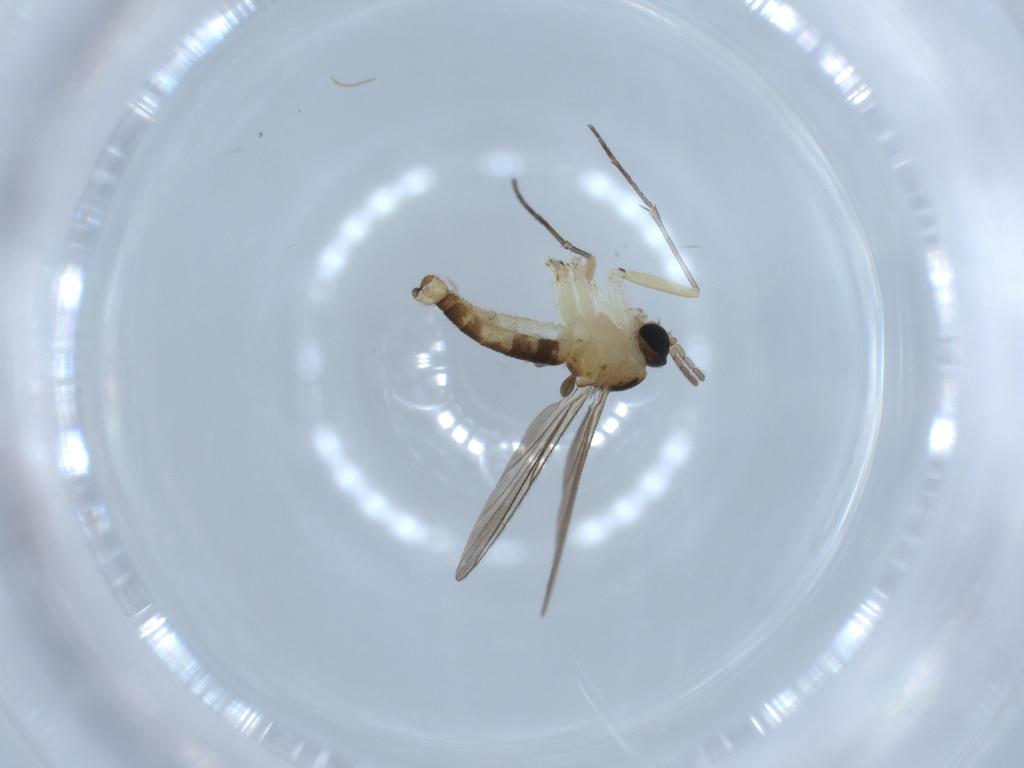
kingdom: Animalia
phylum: Arthropoda
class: Insecta
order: Diptera
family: Sciaridae
